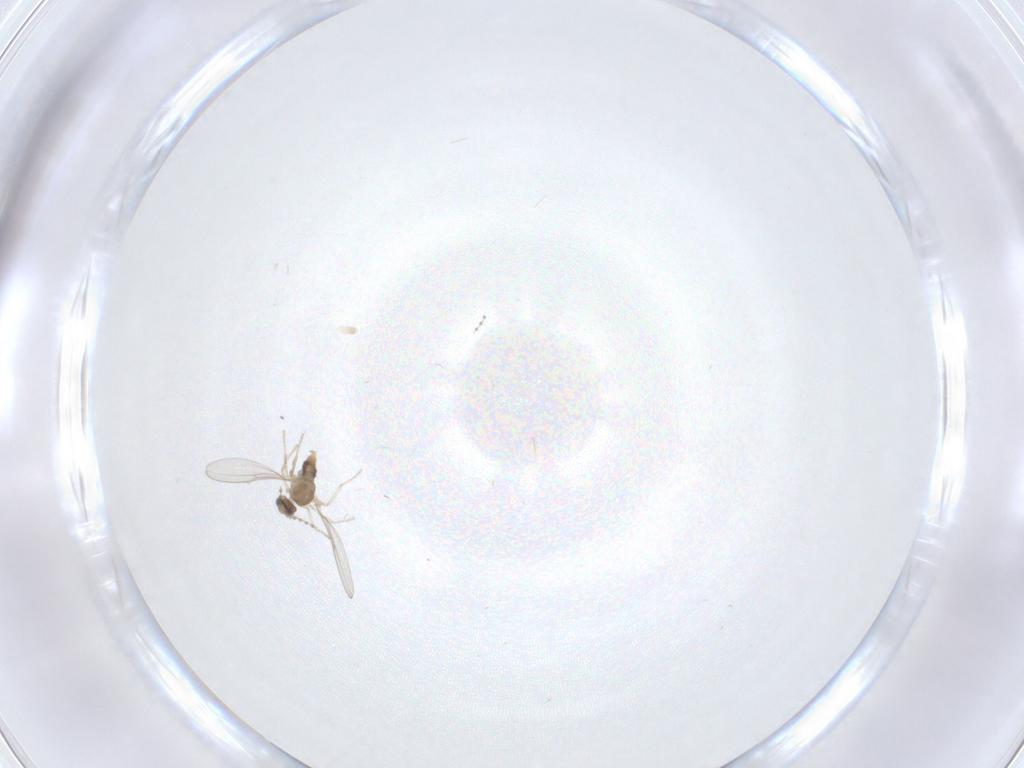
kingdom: Animalia
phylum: Arthropoda
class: Insecta
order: Diptera
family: Cecidomyiidae
